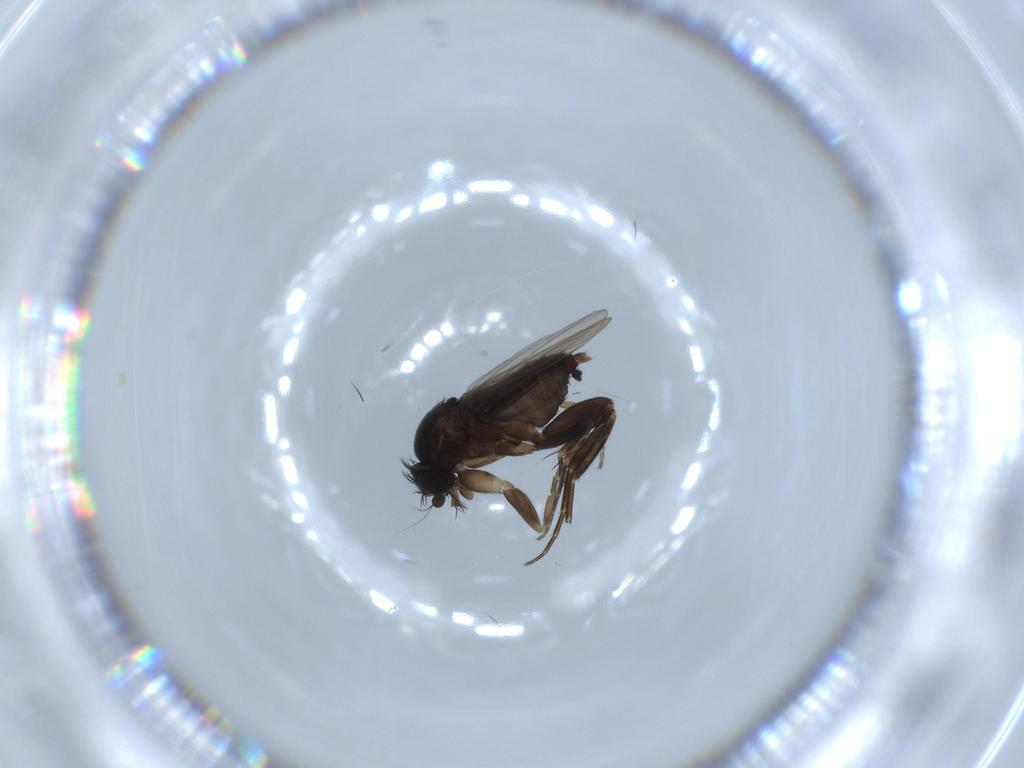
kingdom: Animalia
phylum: Arthropoda
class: Insecta
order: Diptera
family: Phoridae
